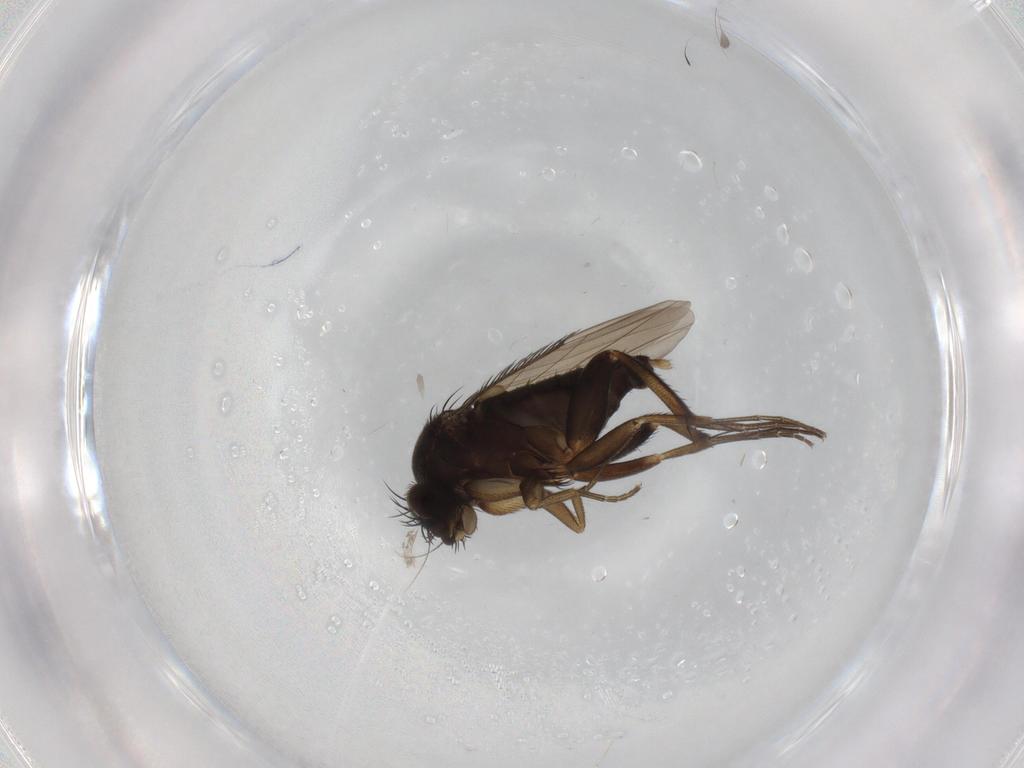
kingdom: Animalia
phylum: Arthropoda
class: Insecta
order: Diptera
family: Phoridae
